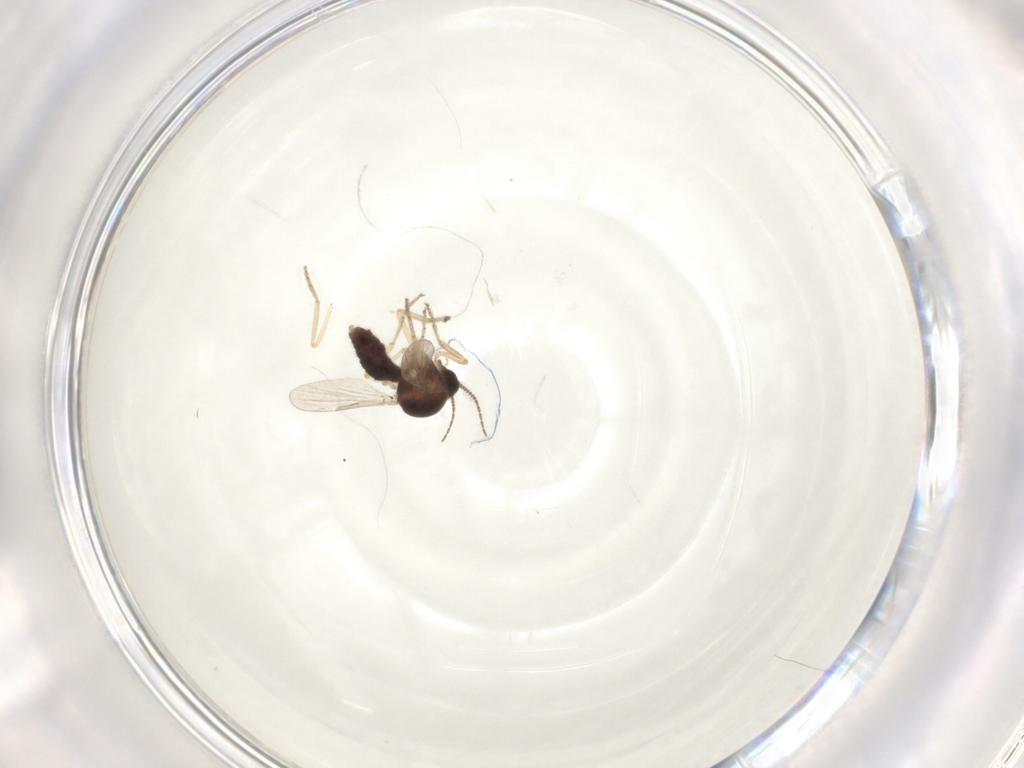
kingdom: Animalia
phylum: Arthropoda
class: Insecta
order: Diptera
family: Ceratopogonidae
